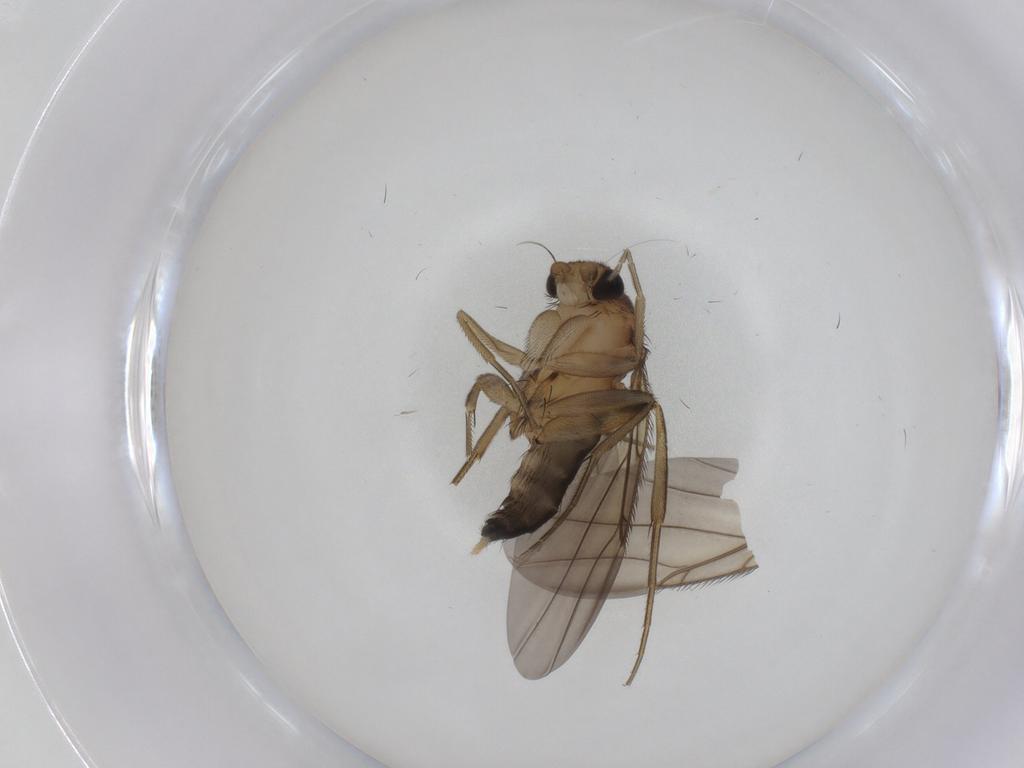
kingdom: Animalia
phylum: Arthropoda
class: Insecta
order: Diptera
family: Phoridae
